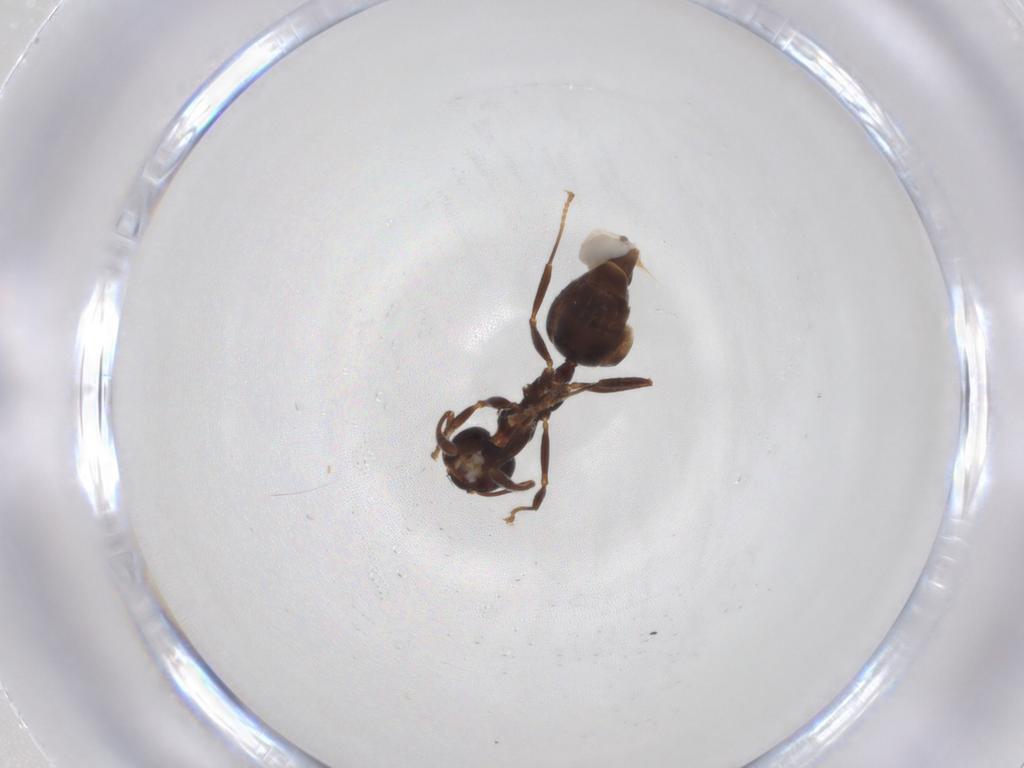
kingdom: Animalia
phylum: Arthropoda
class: Insecta
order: Hymenoptera
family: Formicidae
